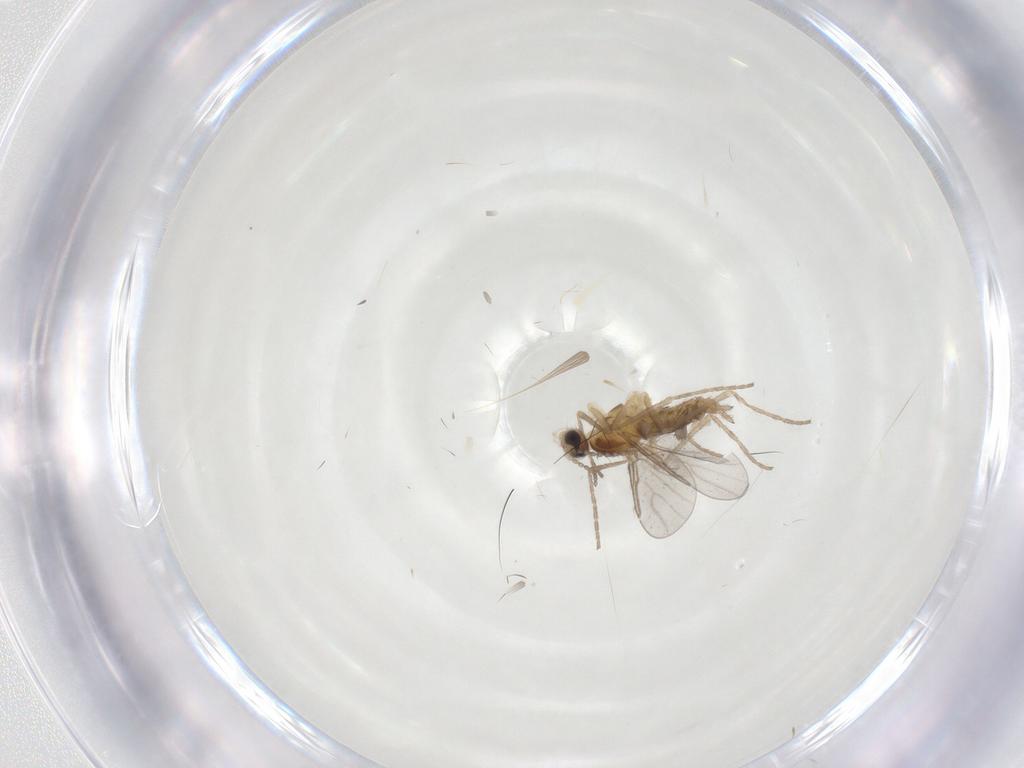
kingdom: Animalia
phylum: Arthropoda
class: Insecta
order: Diptera
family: Cecidomyiidae
